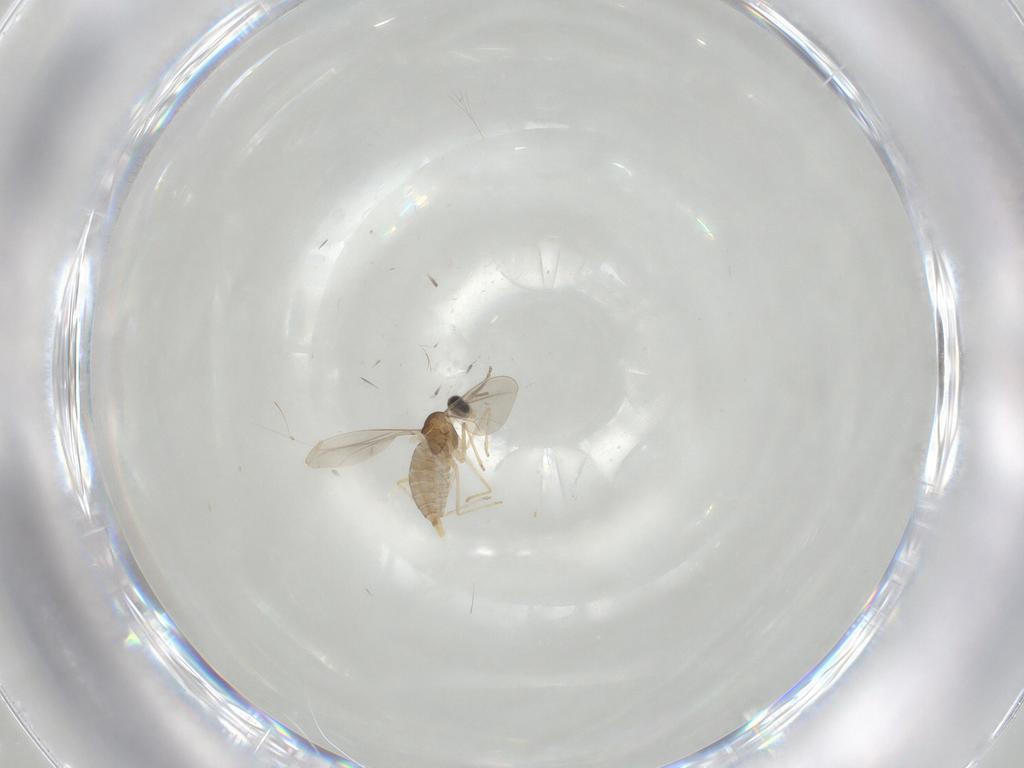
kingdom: Animalia
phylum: Arthropoda
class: Insecta
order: Diptera
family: Cecidomyiidae
